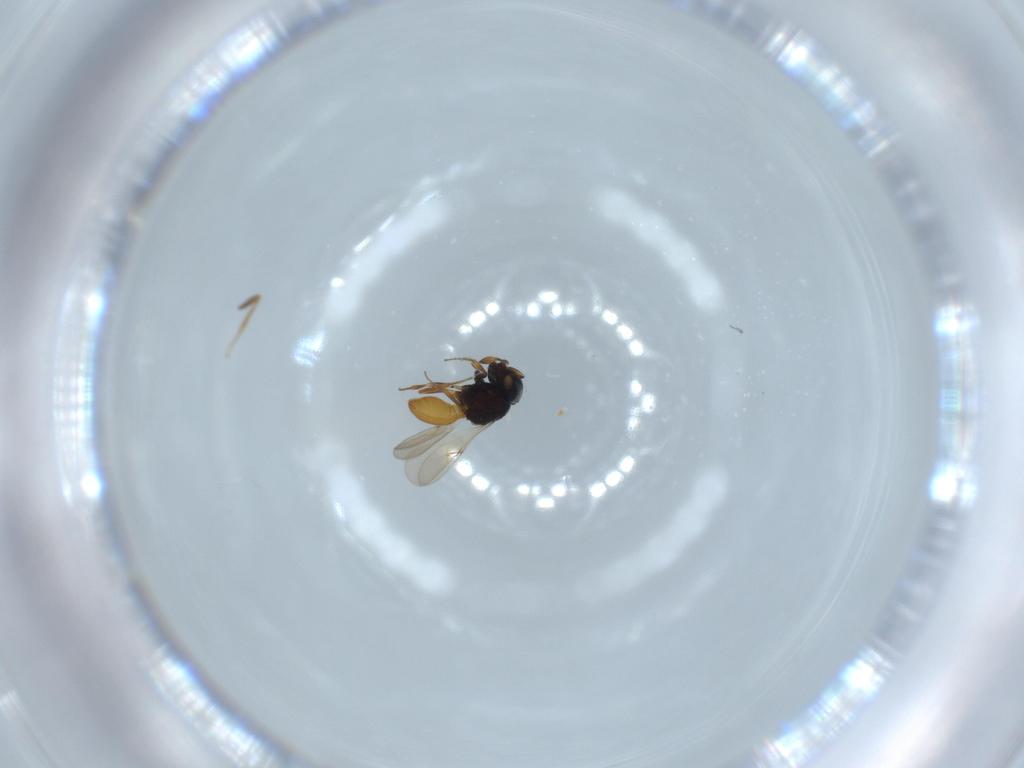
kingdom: Animalia
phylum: Arthropoda
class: Insecta
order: Hymenoptera
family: Scelionidae
